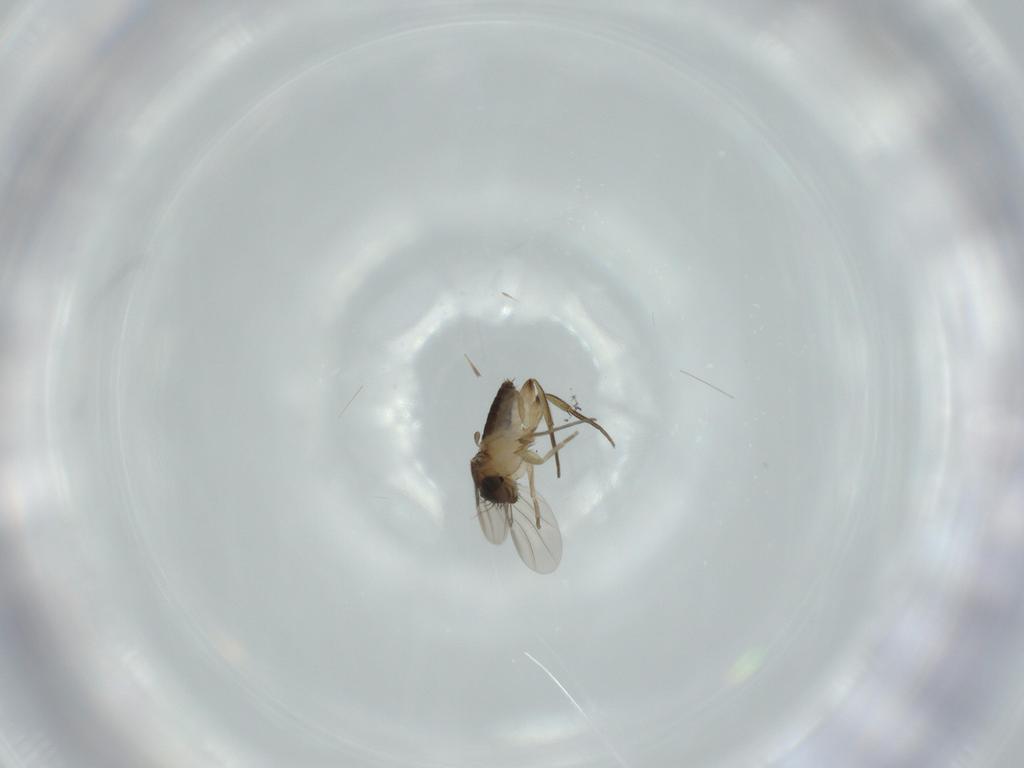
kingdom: Animalia
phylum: Arthropoda
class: Insecta
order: Diptera
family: Phoridae
